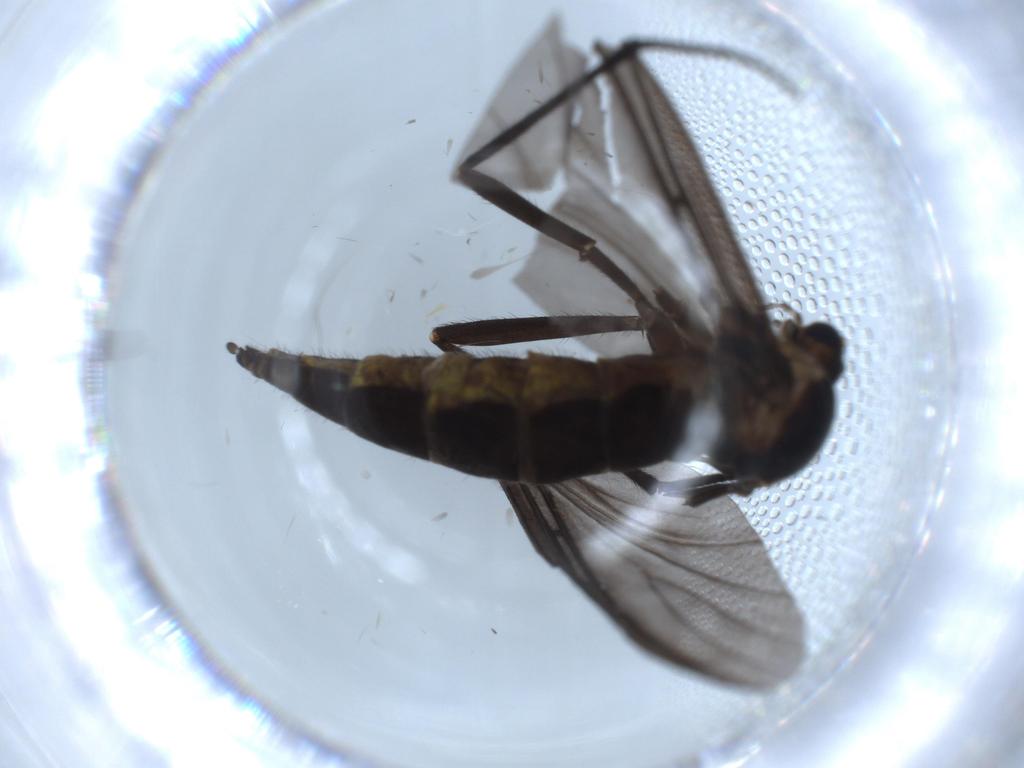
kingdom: Animalia
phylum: Arthropoda
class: Insecta
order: Diptera
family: Sciaridae
